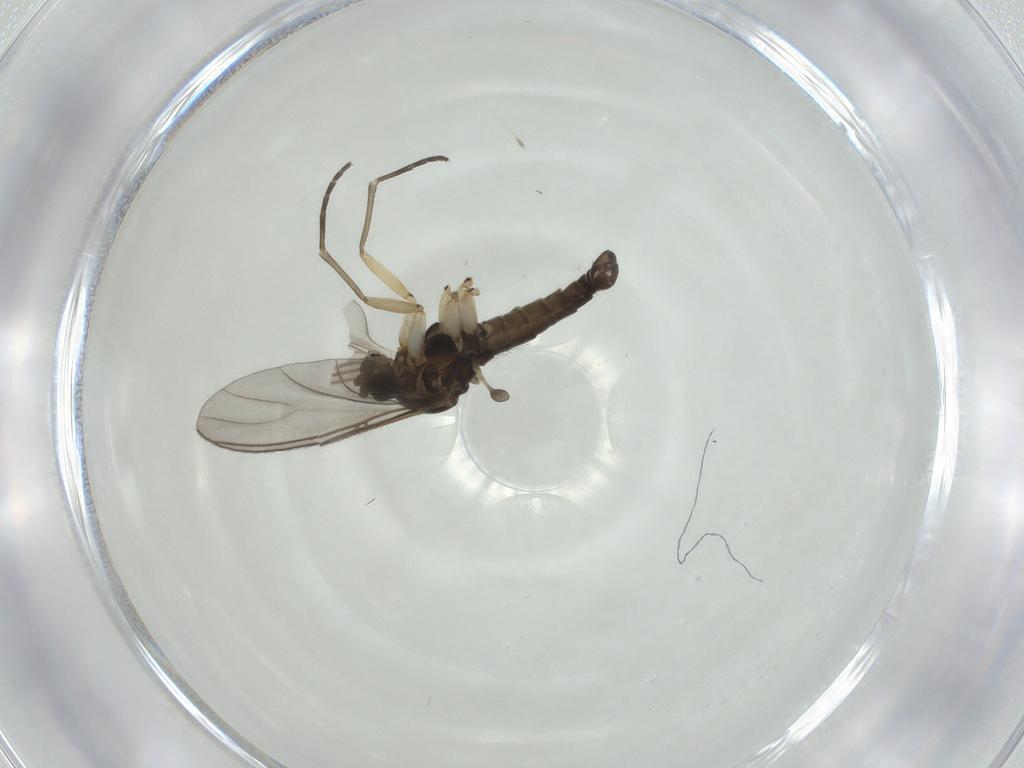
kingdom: Animalia
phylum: Arthropoda
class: Insecta
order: Diptera
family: Sciaridae
